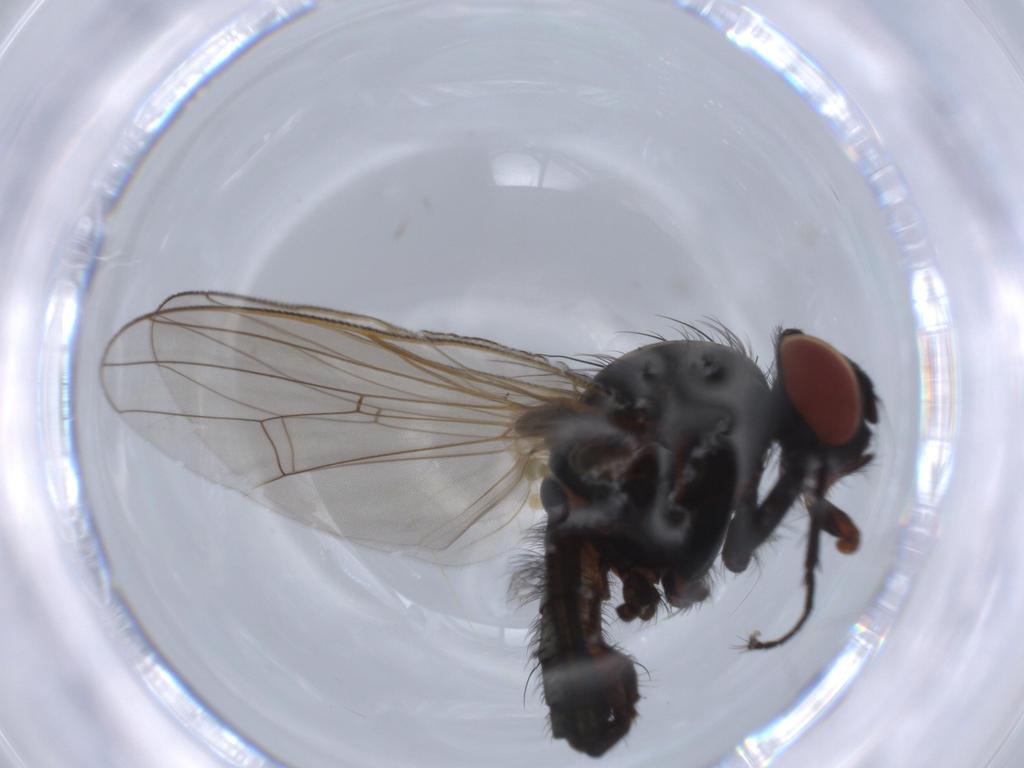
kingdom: Animalia
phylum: Arthropoda
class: Insecta
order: Diptera
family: Anthomyiidae
